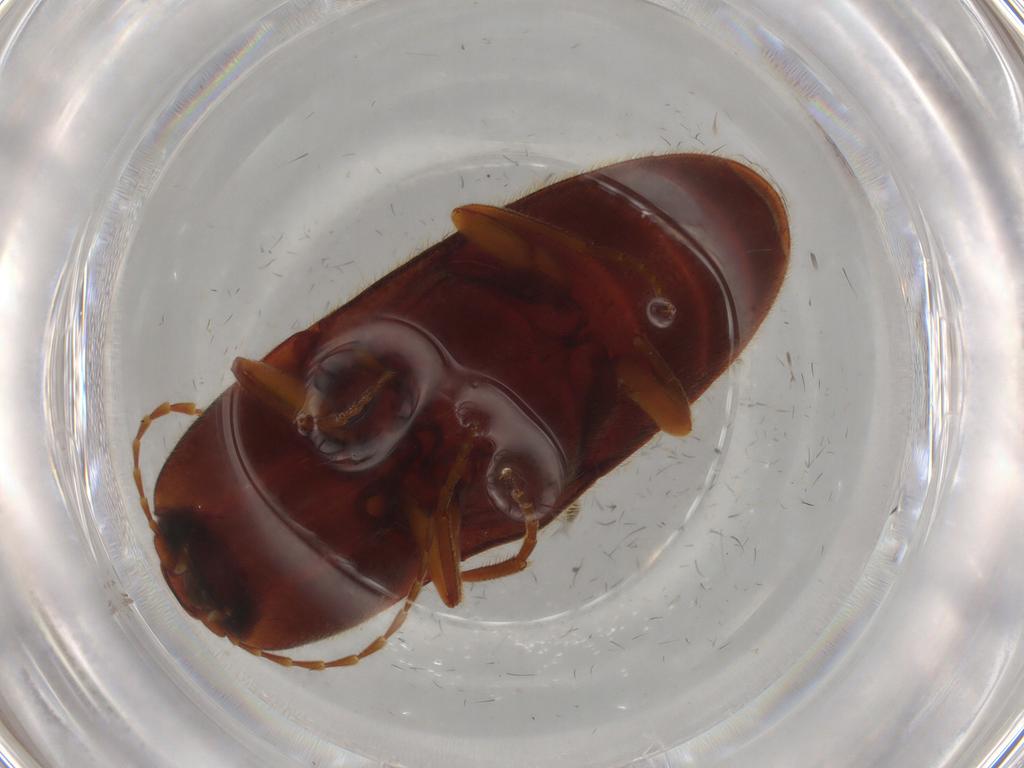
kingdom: Animalia
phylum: Arthropoda
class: Insecta
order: Coleoptera
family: Elateridae
